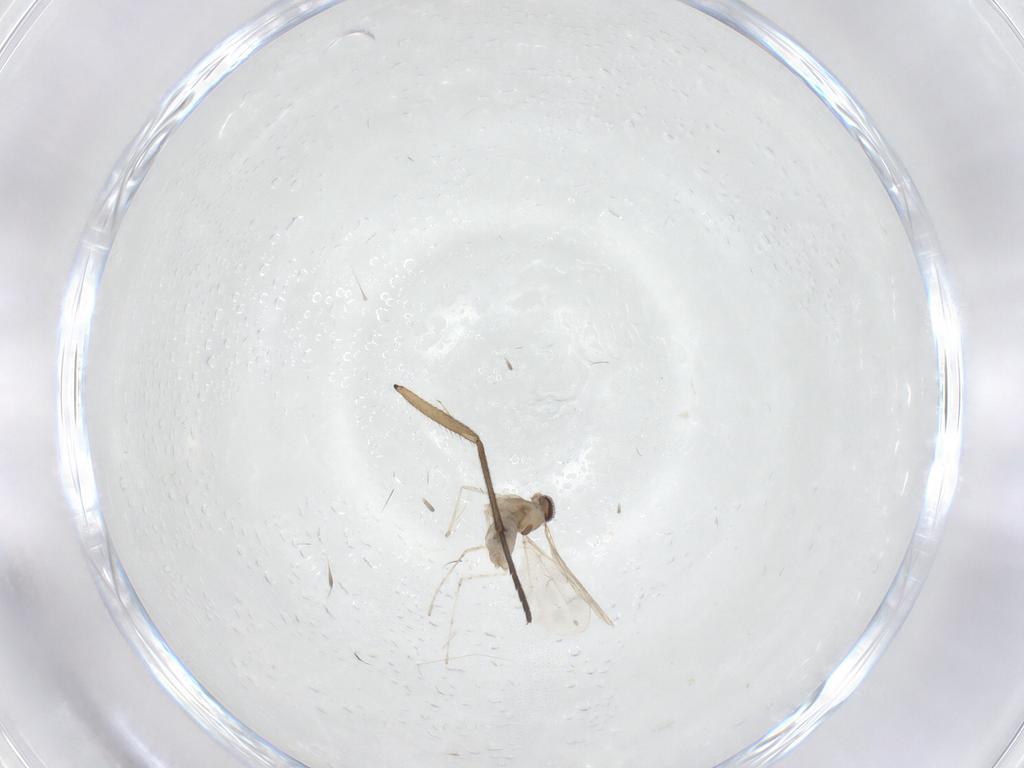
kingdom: Animalia
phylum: Arthropoda
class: Insecta
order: Diptera
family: Cecidomyiidae
